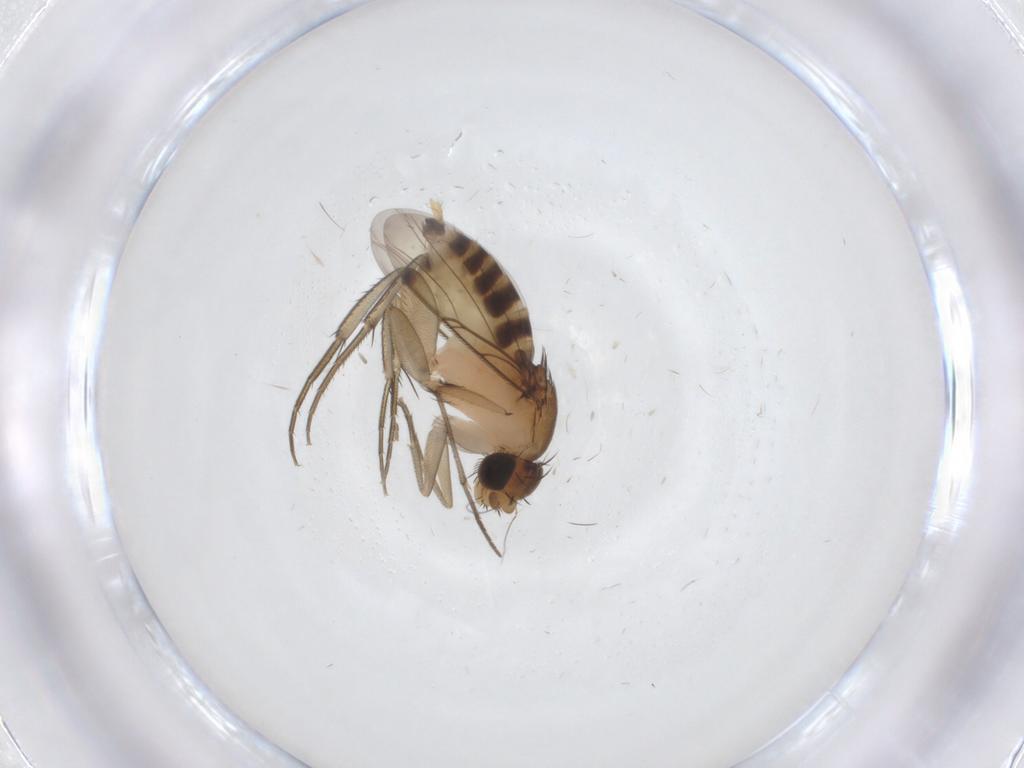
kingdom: Animalia
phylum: Arthropoda
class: Insecta
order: Diptera
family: Phoridae
